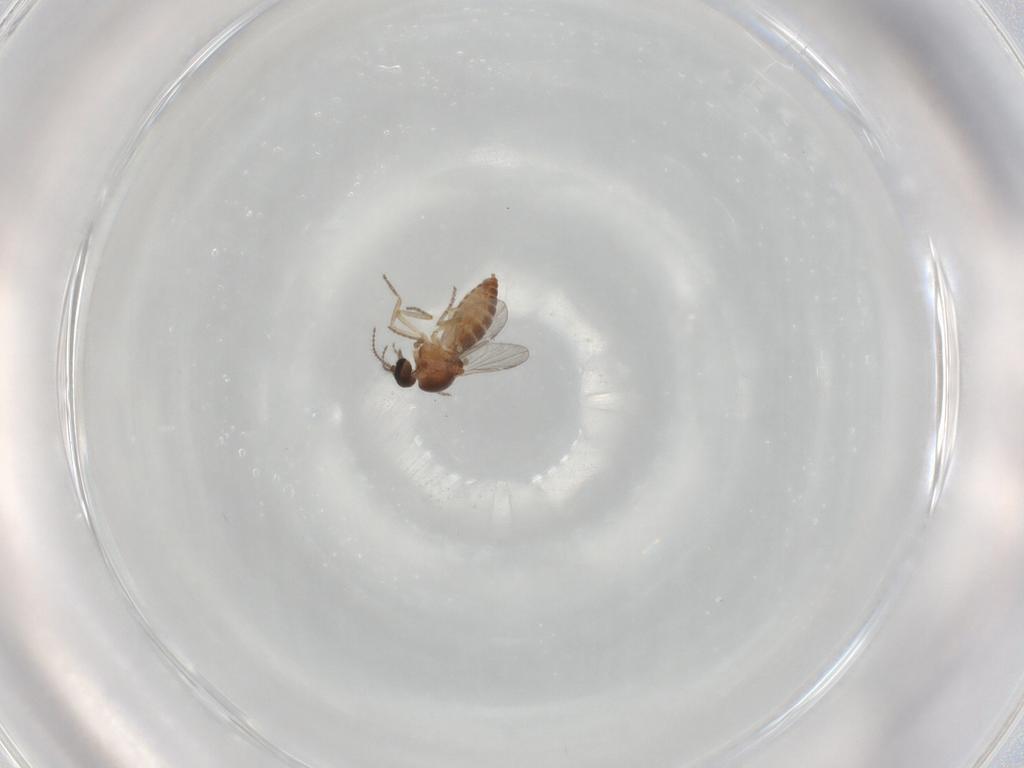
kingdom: Animalia
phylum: Arthropoda
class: Insecta
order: Diptera
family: Ceratopogonidae
